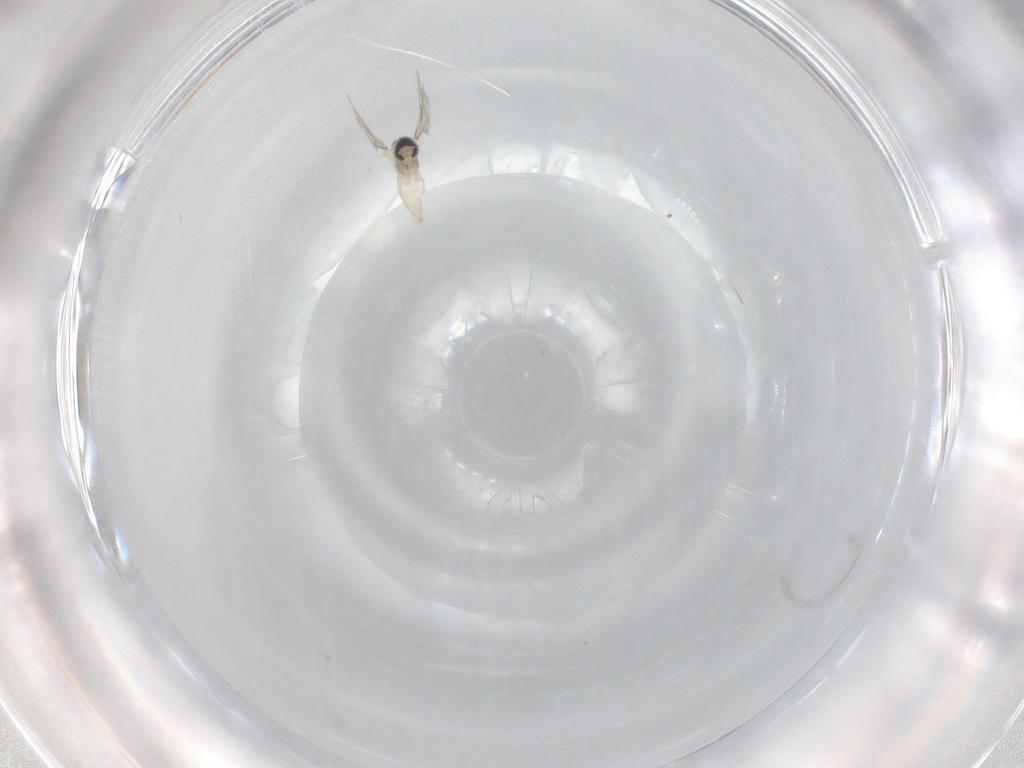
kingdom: Animalia
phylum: Arthropoda
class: Insecta
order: Diptera
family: Cecidomyiidae
